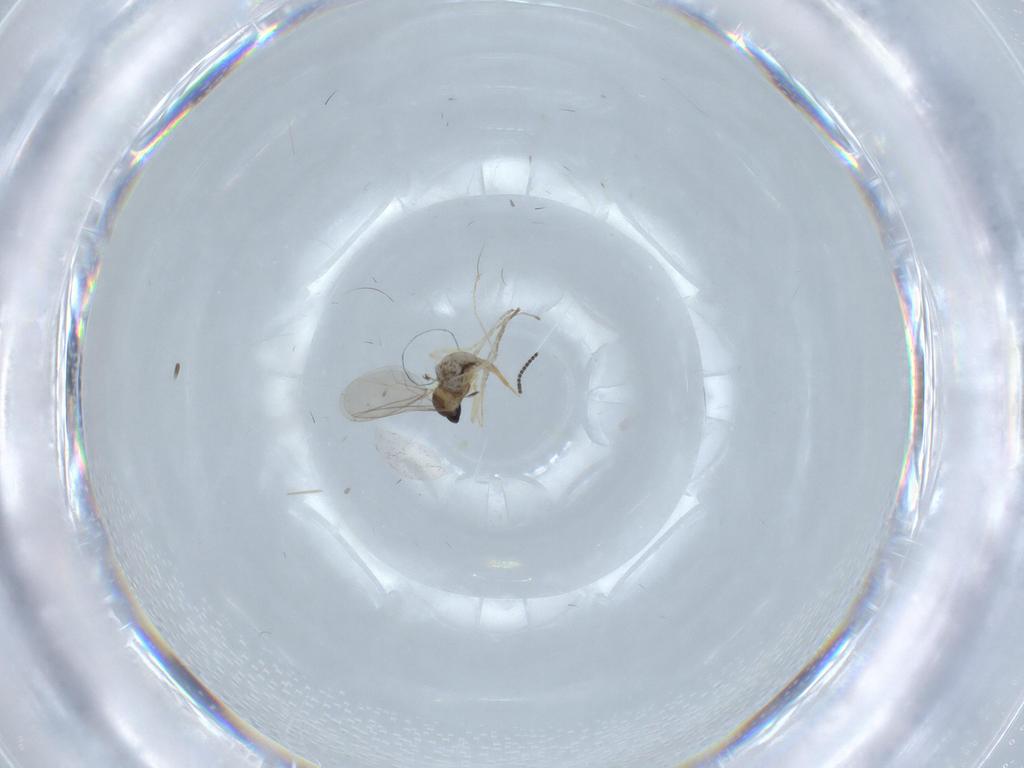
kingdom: Animalia
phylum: Arthropoda
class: Insecta
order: Diptera
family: Cecidomyiidae
